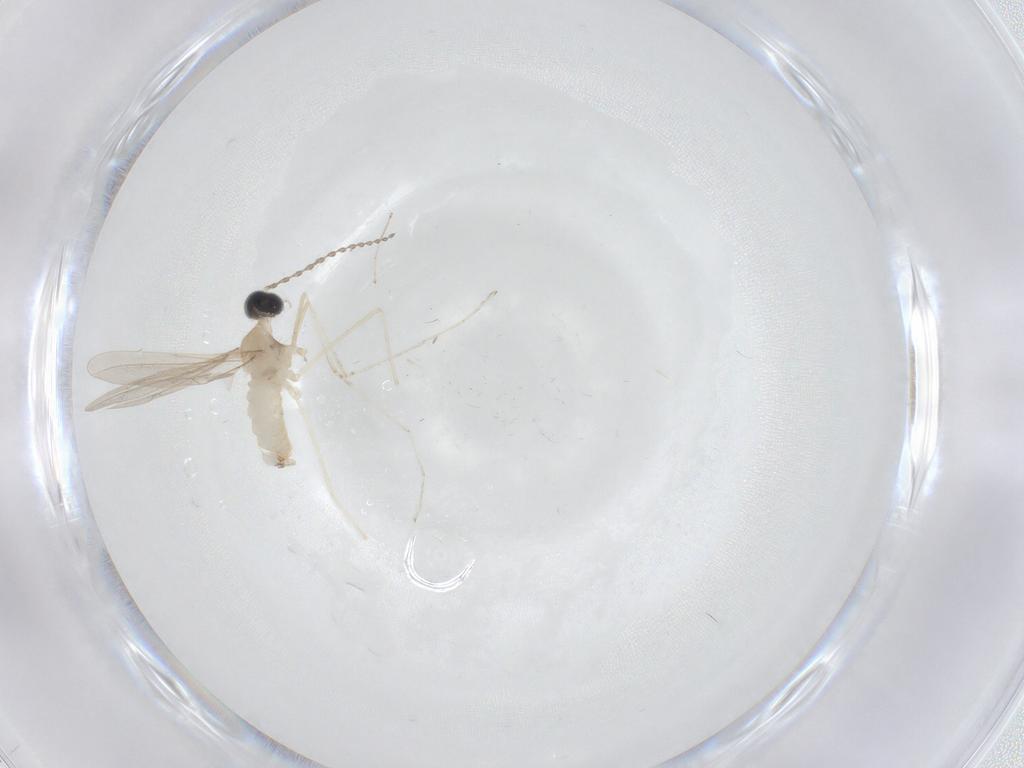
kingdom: Animalia
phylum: Arthropoda
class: Insecta
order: Diptera
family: Cecidomyiidae
